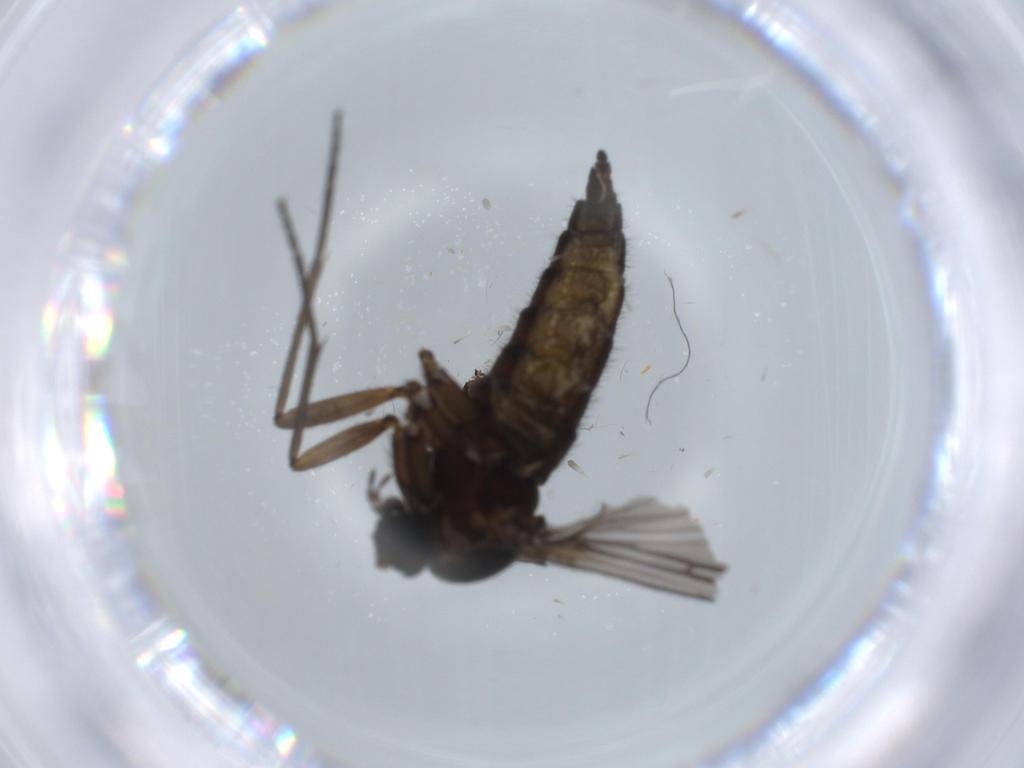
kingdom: Animalia
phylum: Arthropoda
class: Insecta
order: Diptera
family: Sciaridae
